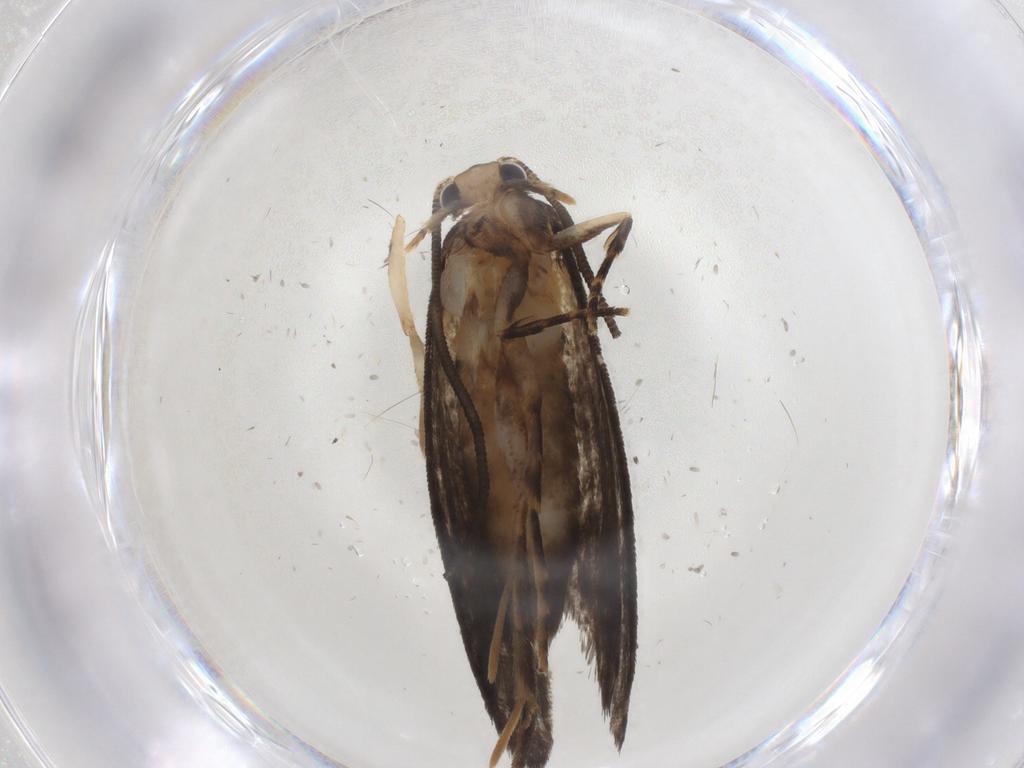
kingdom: Animalia
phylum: Arthropoda
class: Insecta
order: Lepidoptera
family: Tineidae
